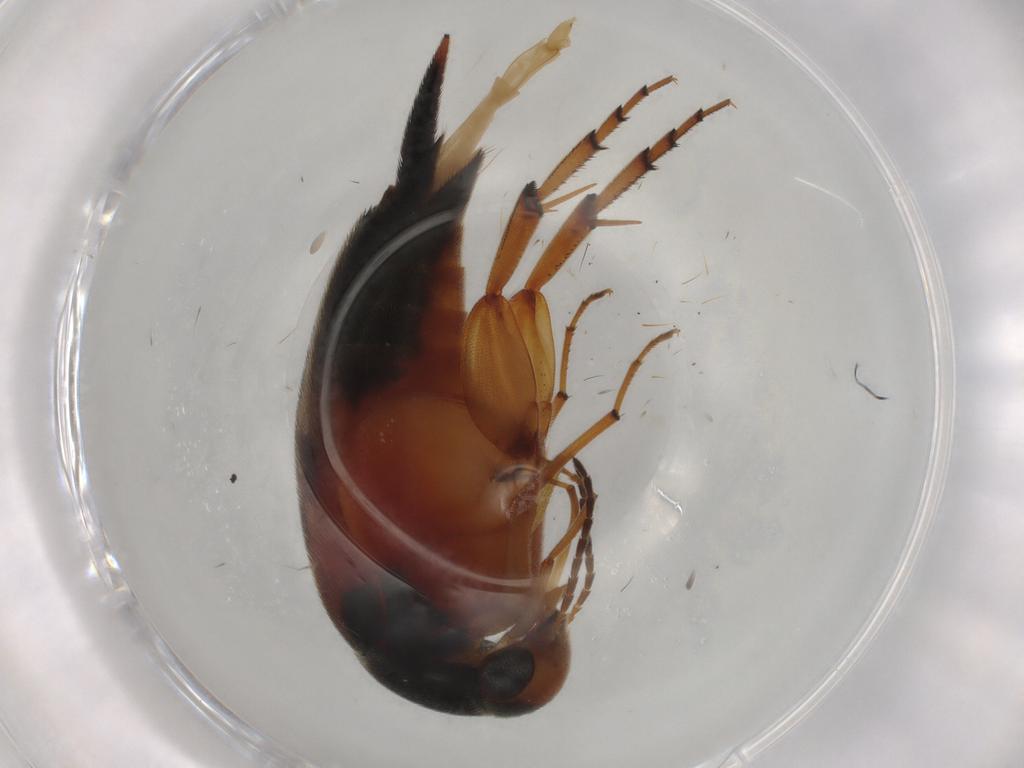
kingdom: Animalia
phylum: Arthropoda
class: Insecta
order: Coleoptera
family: Mordellidae
